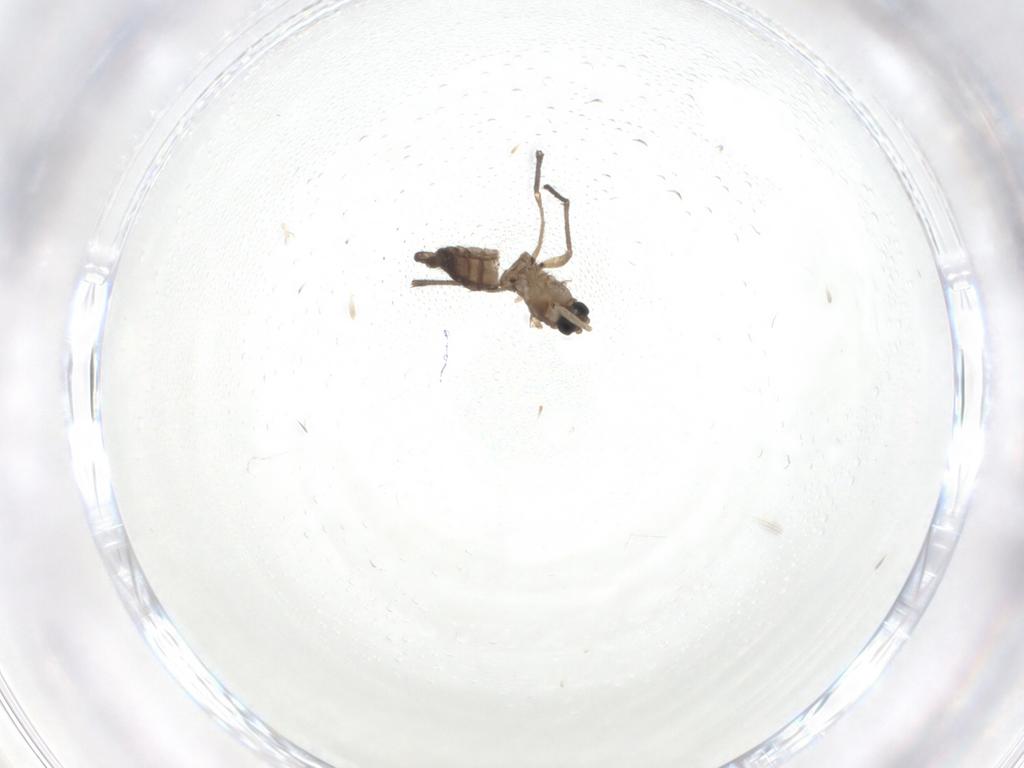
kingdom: Animalia
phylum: Arthropoda
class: Insecta
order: Diptera
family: Sciaridae
